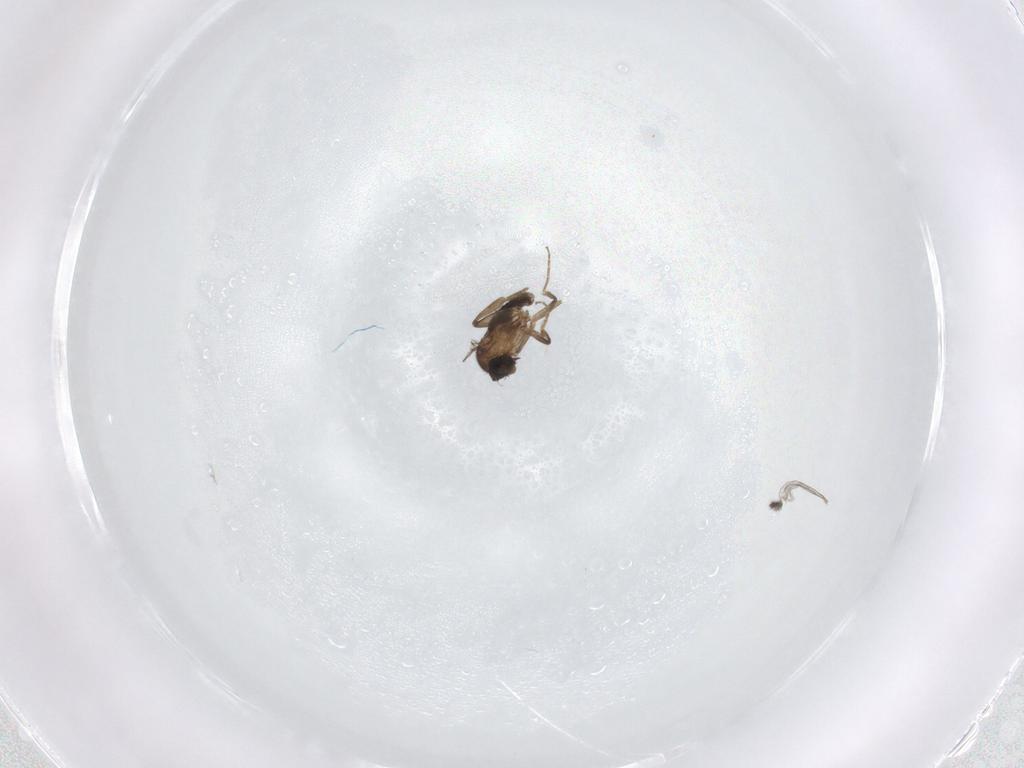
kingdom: Animalia
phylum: Arthropoda
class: Insecta
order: Diptera
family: Sciaridae
